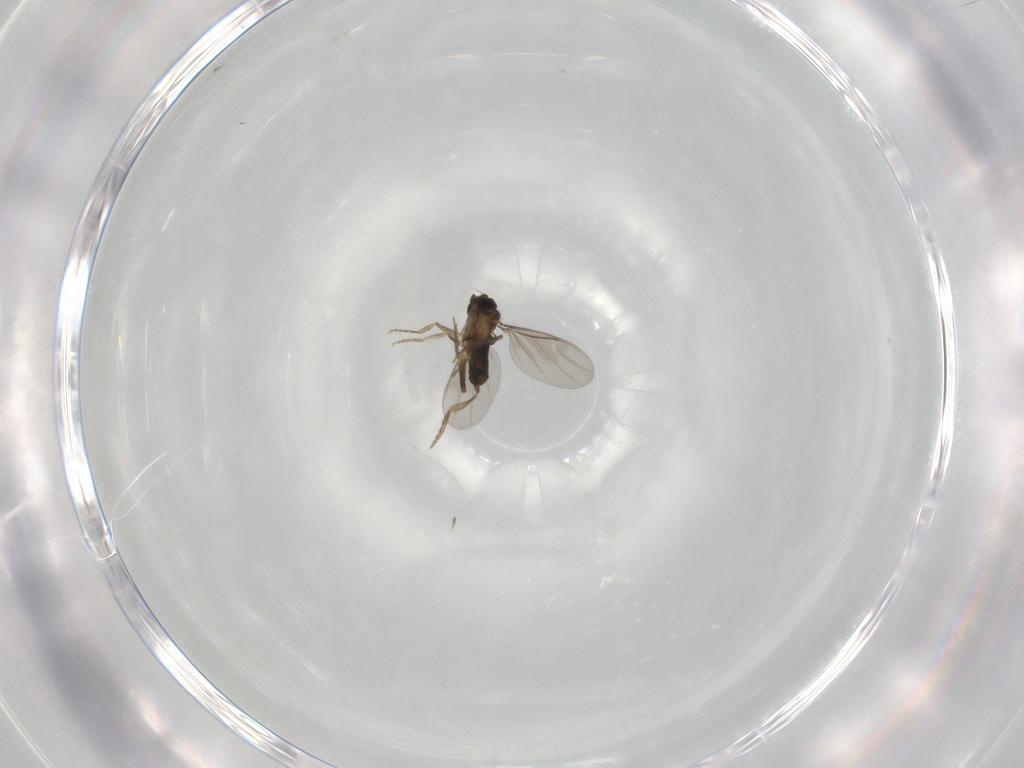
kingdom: Animalia
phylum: Arthropoda
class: Insecta
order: Diptera
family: Phoridae
